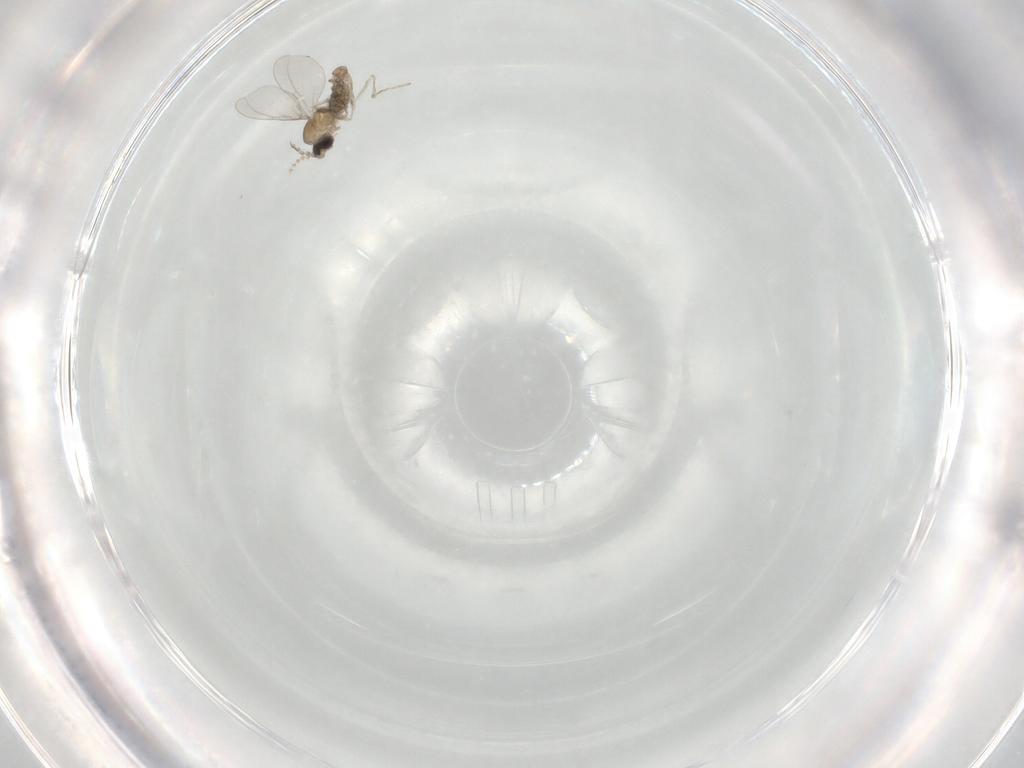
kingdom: Animalia
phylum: Arthropoda
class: Insecta
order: Diptera
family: Cecidomyiidae
